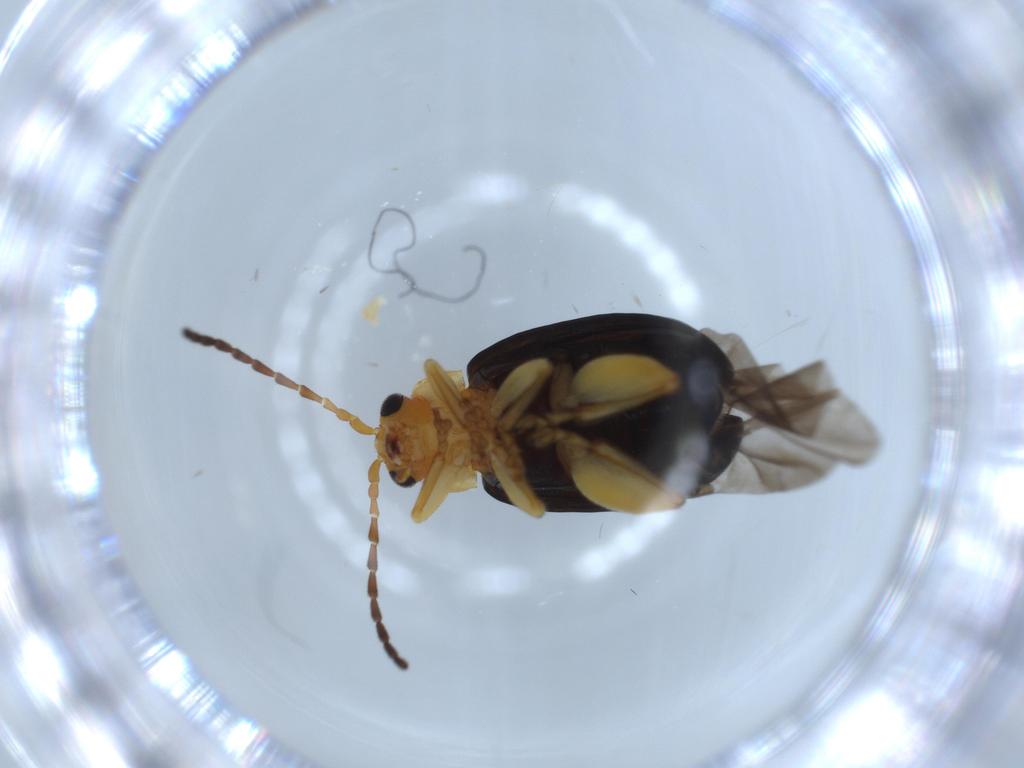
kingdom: Animalia
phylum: Arthropoda
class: Insecta
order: Coleoptera
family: Chrysomelidae
